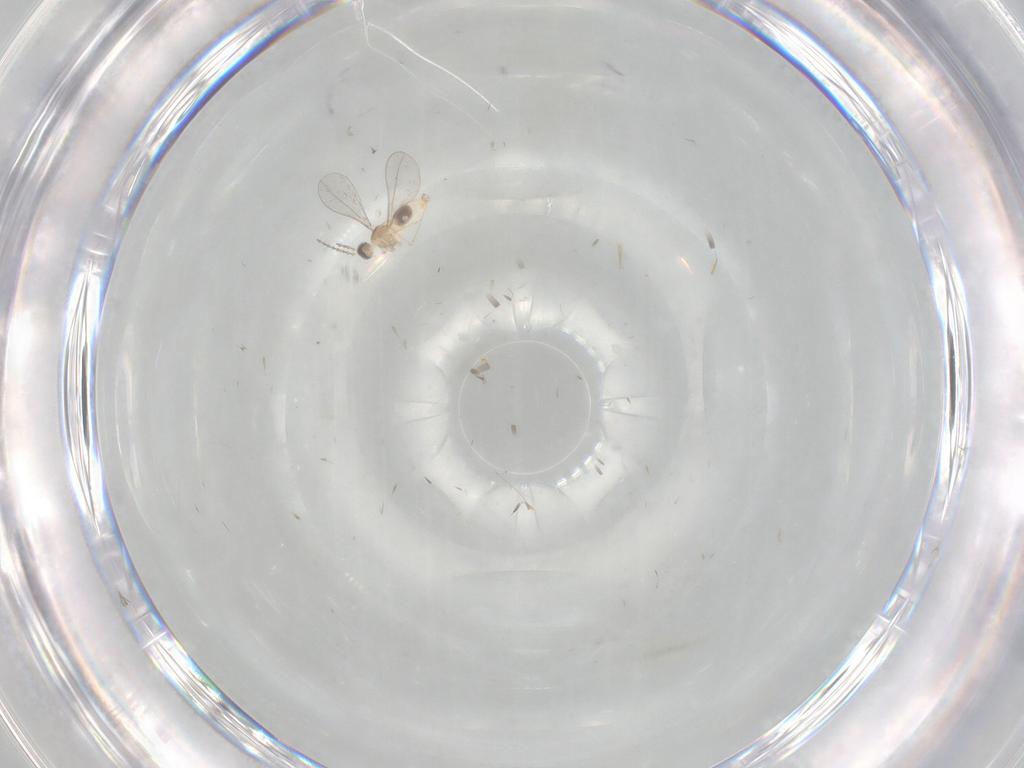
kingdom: Animalia
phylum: Arthropoda
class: Insecta
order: Diptera
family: Cecidomyiidae
